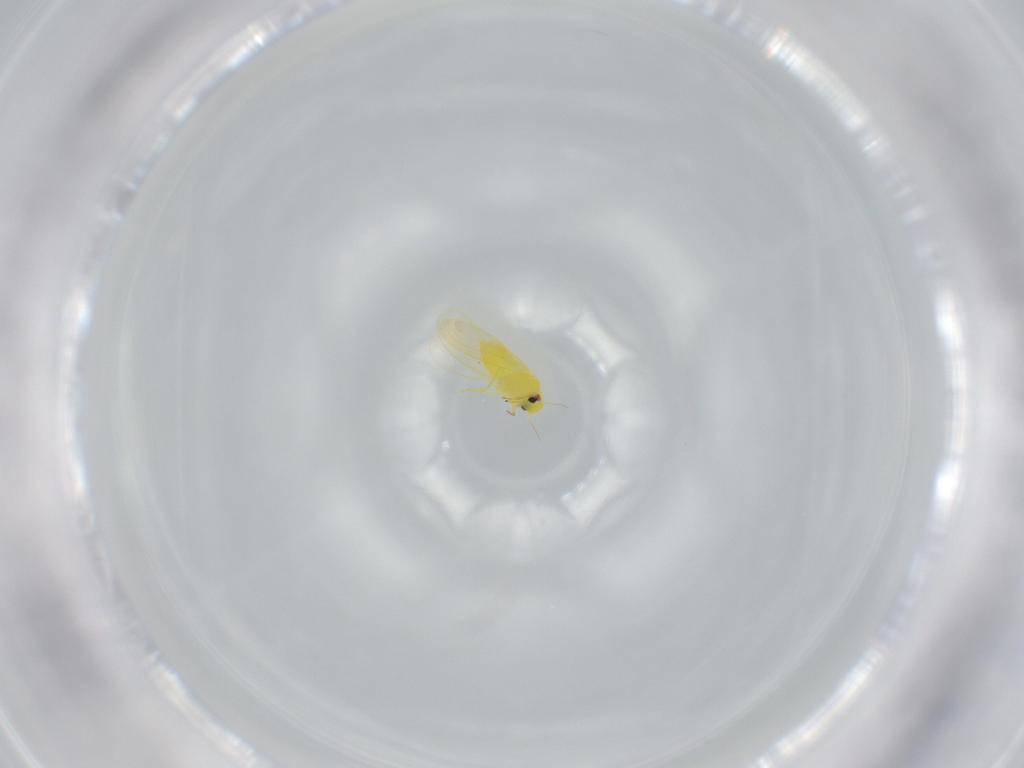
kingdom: Animalia
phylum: Arthropoda
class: Insecta
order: Hemiptera
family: Aleyrodidae
